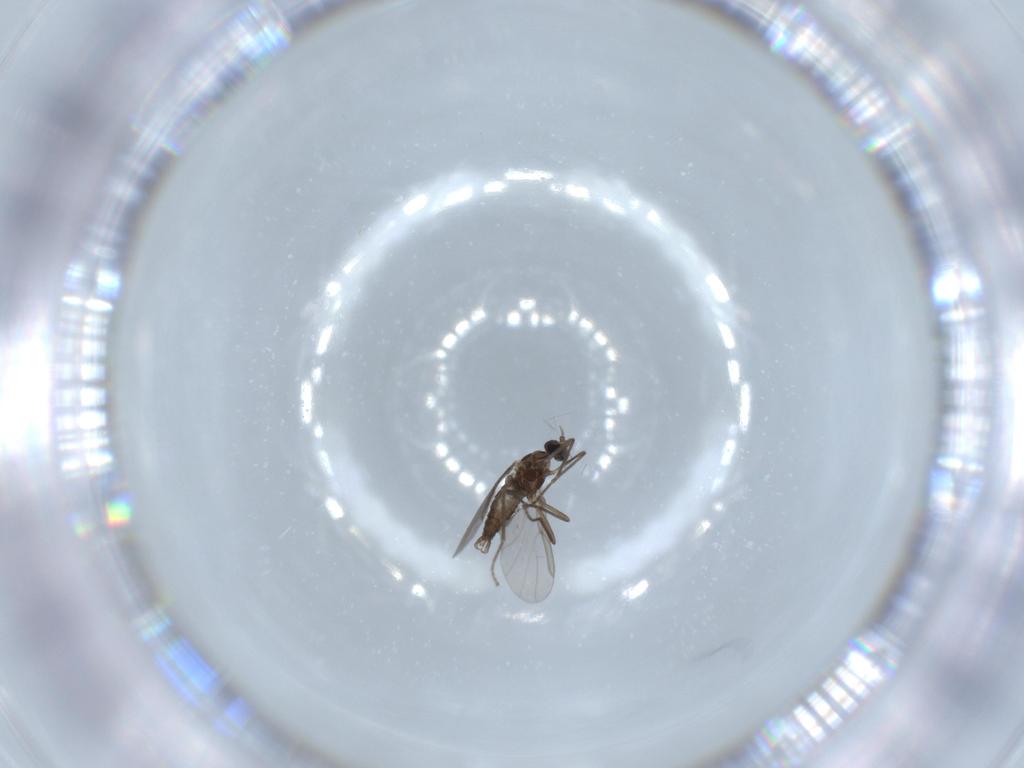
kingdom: Animalia
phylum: Arthropoda
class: Insecta
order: Diptera
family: Cecidomyiidae
